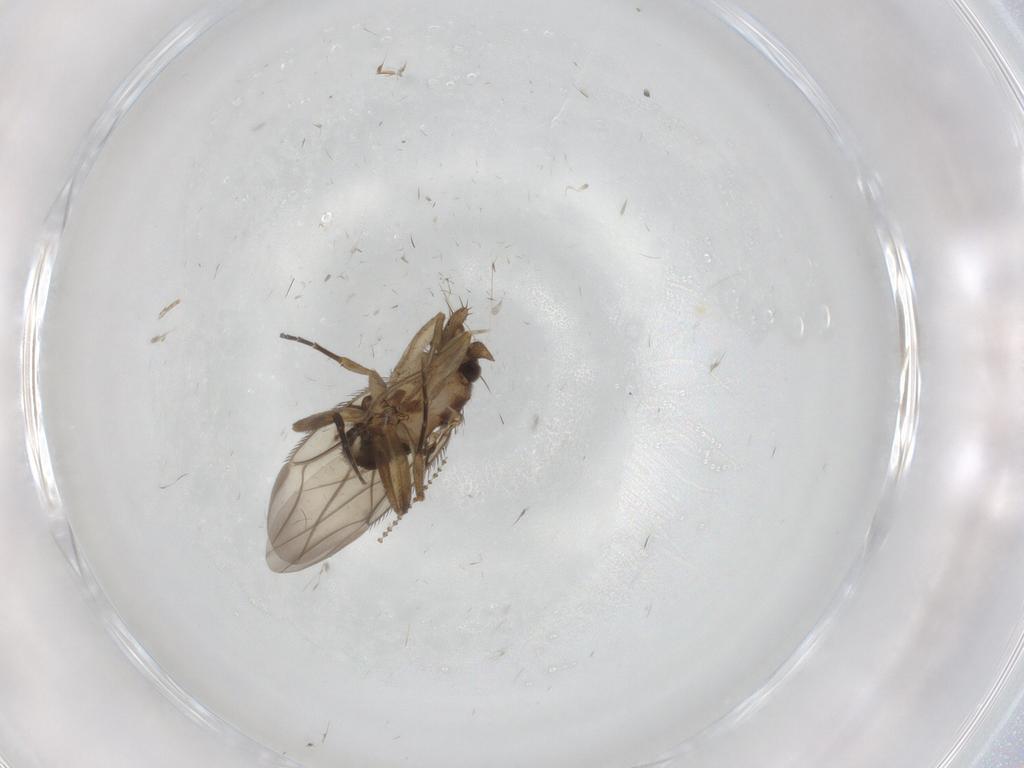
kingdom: Animalia
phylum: Arthropoda
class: Insecta
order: Diptera
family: Phoridae
